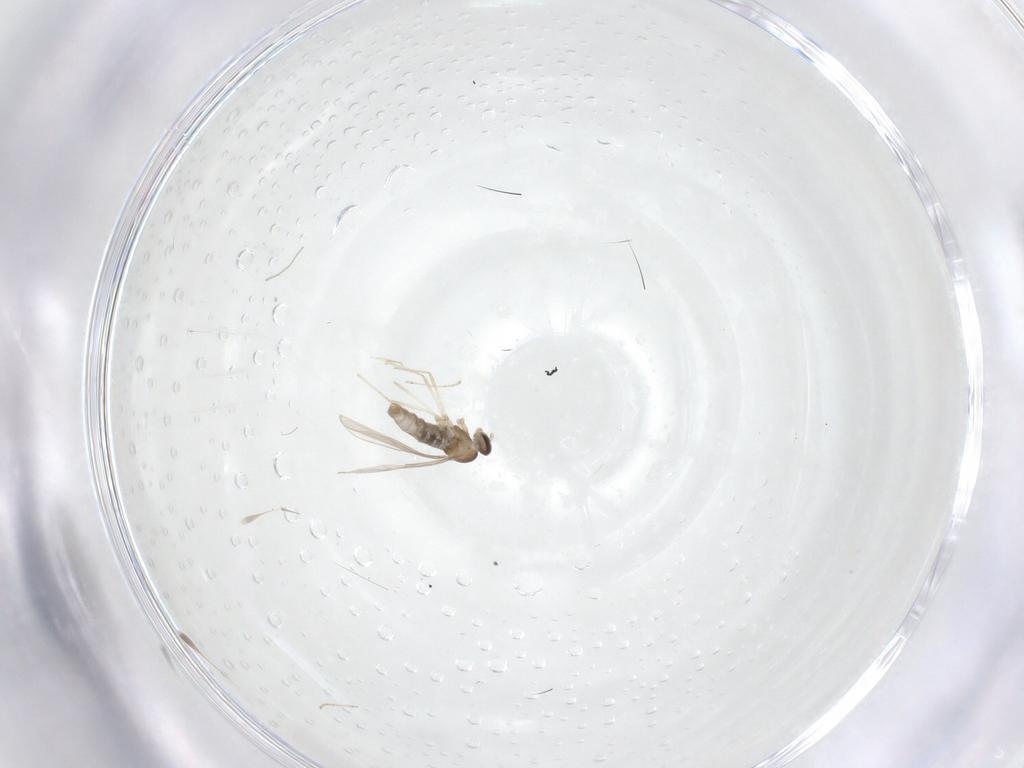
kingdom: Animalia
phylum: Arthropoda
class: Insecta
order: Diptera
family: Cecidomyiidae
